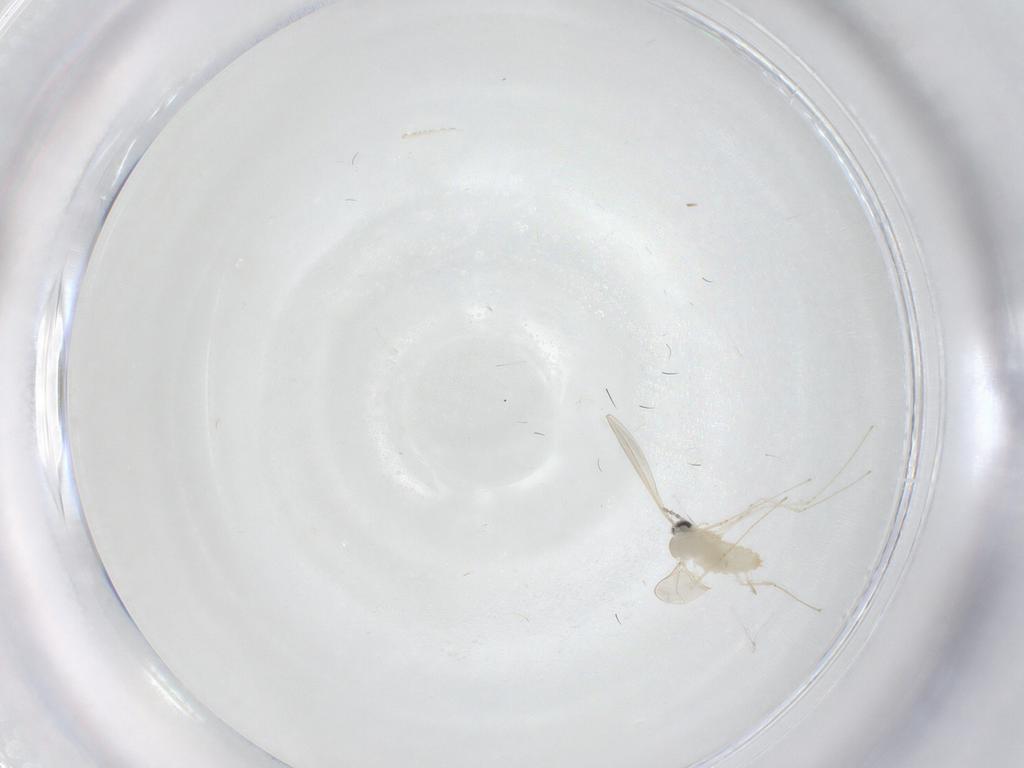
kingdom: Animalia
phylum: Arthropoda
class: Insecta
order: Diptera
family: Cecidomyiidae
